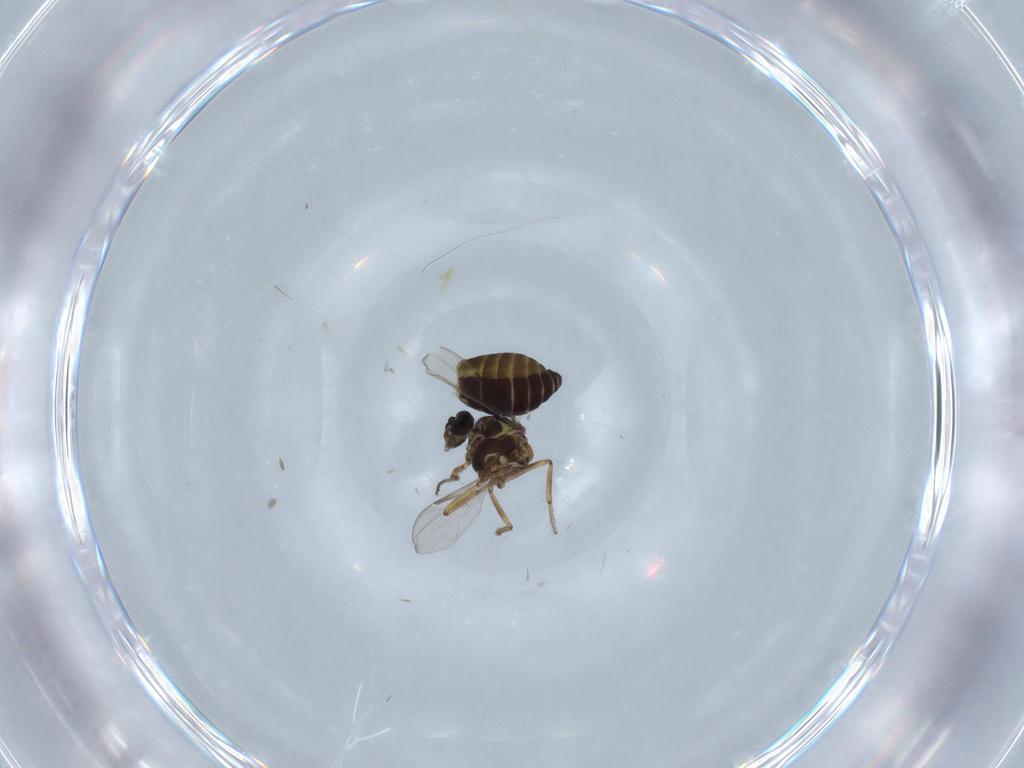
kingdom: Animalia
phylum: Arthropoda
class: Insecta
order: Diptera
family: Ceratopogonidae
